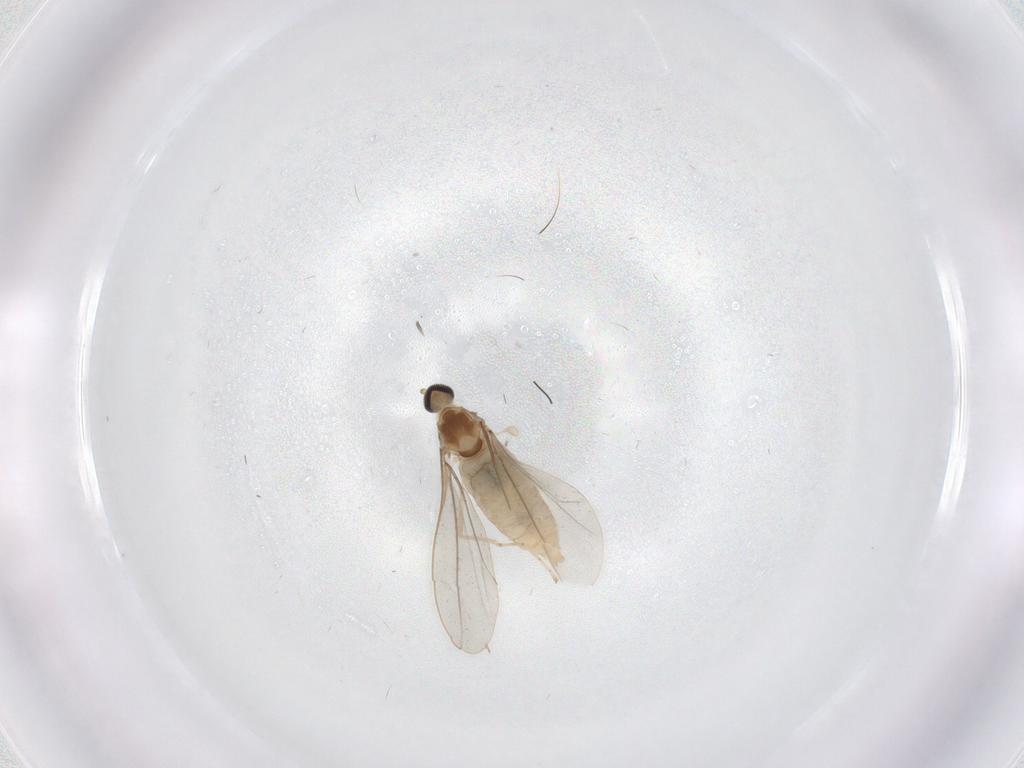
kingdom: Animalia
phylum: Arthropoda
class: Insecta
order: Diptera
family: Cecidomyiidae
